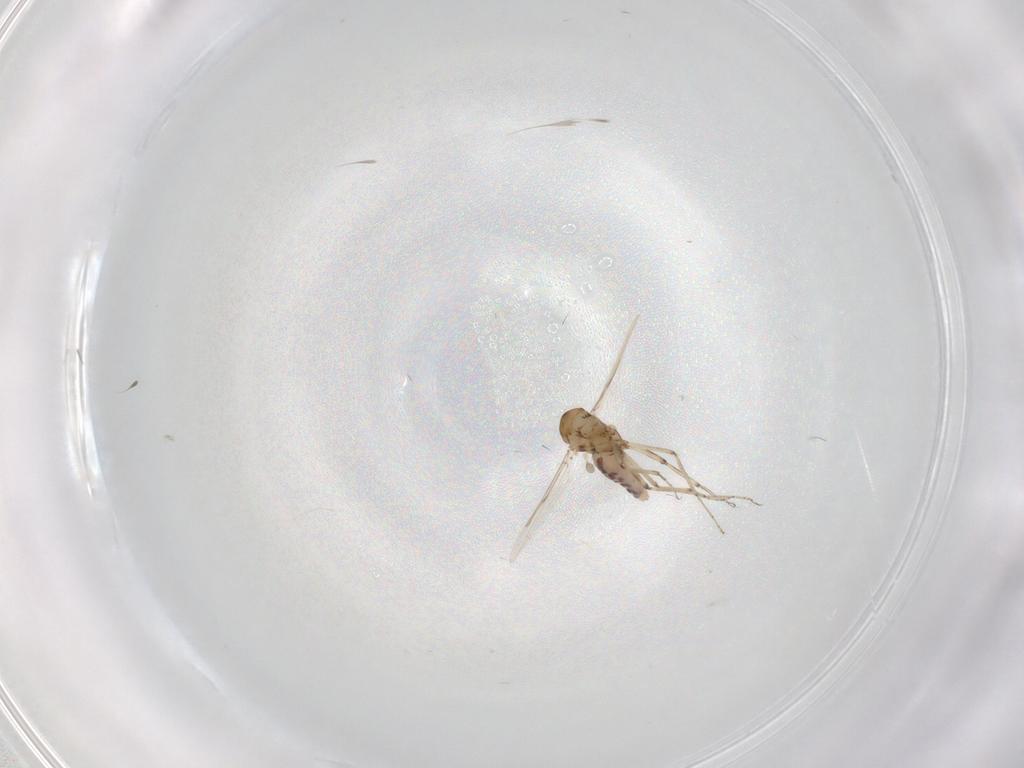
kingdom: Animalia
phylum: Arthropoda
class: Insecta
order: Diptera
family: Ceratopogonidae
